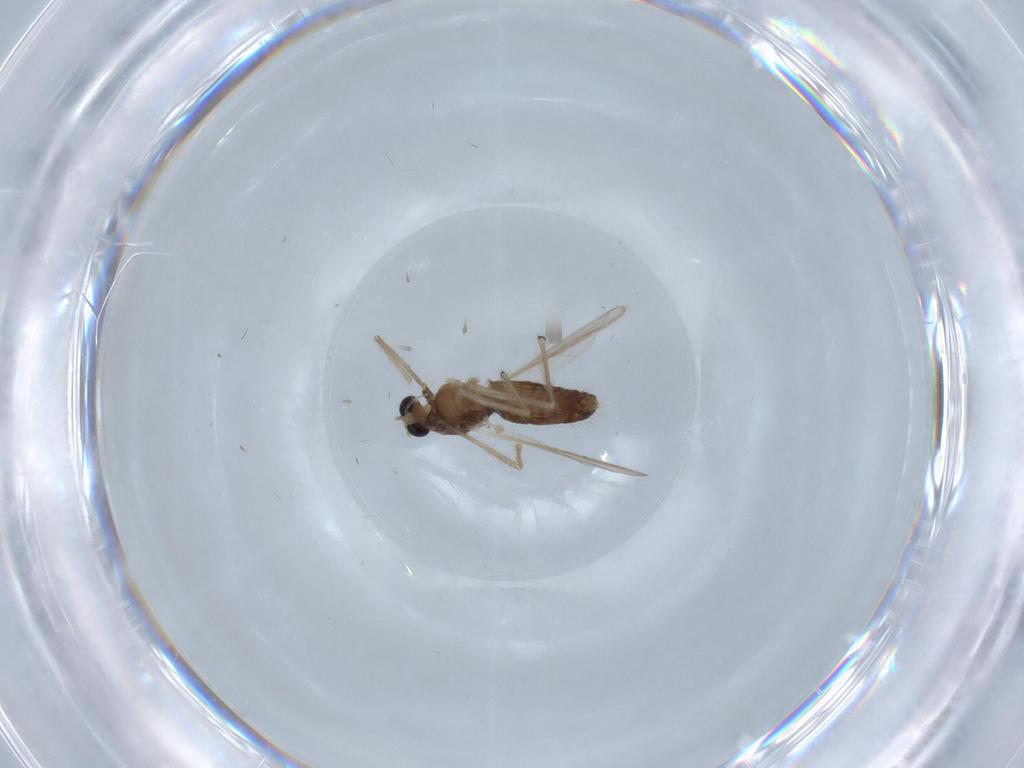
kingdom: Animalia
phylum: Arthropoda
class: Insecta
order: Diptera
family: Chironomidae
